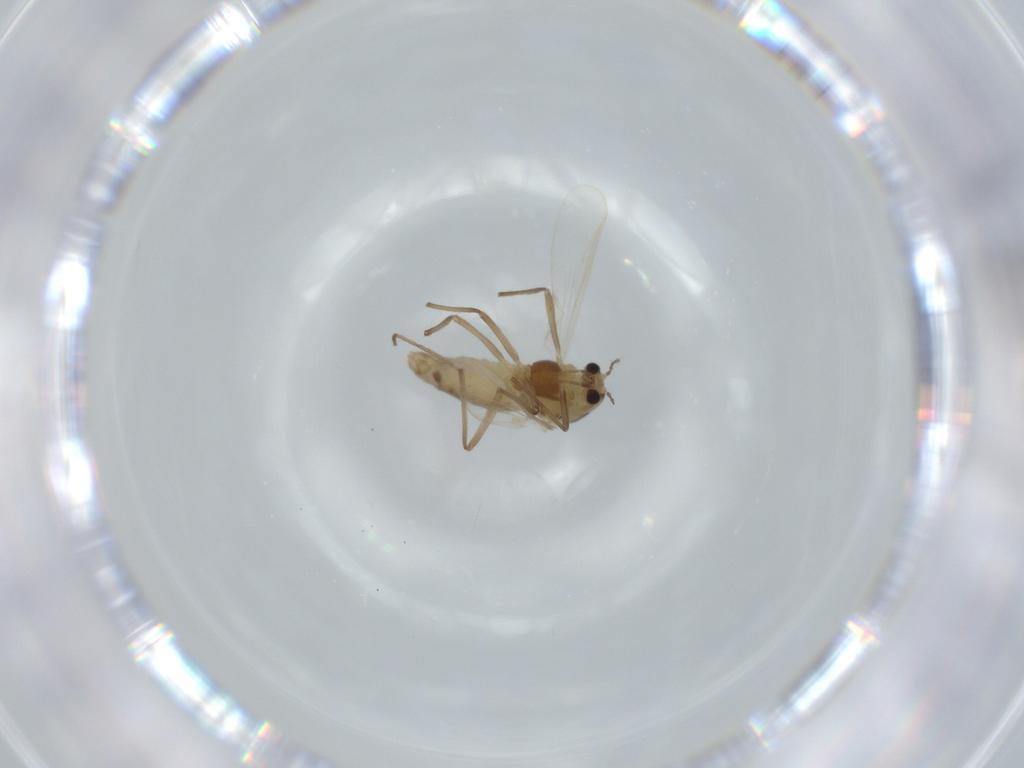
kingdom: Animalia
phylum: Arthropoda
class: Insecta
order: Diptera
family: Chironomidae
